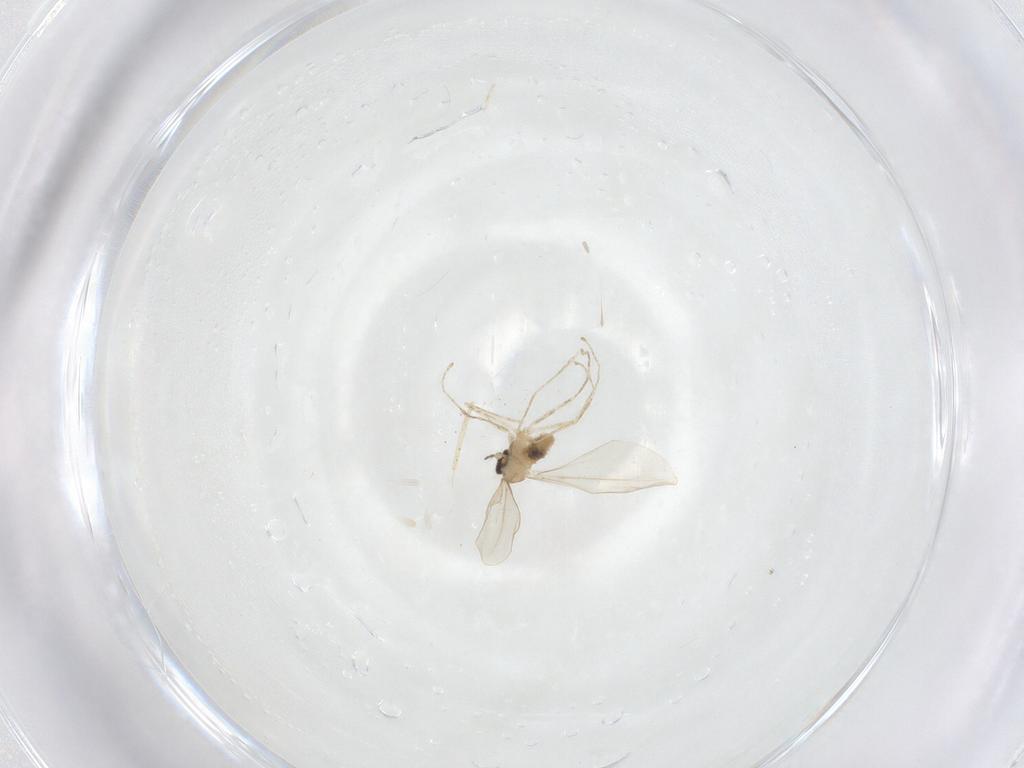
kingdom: Animalia
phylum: Arthropoda
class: Insecta
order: Diptera
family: Cecidomyiidae
